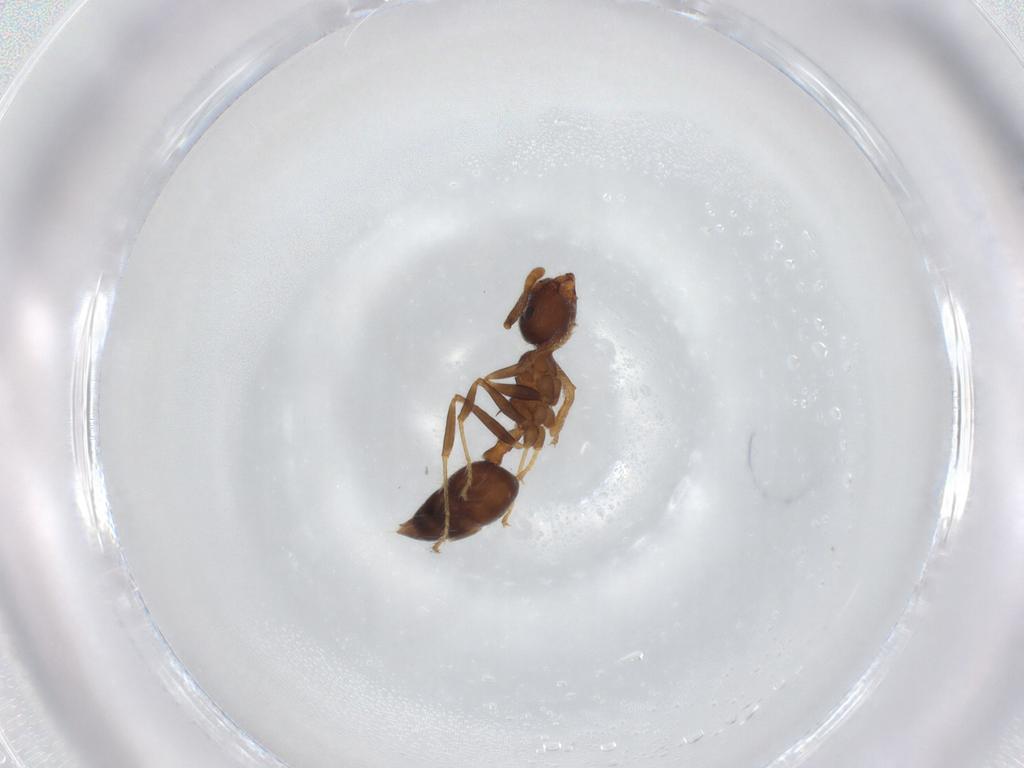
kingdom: Animalia
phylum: Arthropoda
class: Insecta
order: Hymenoptera
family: Formicidae
